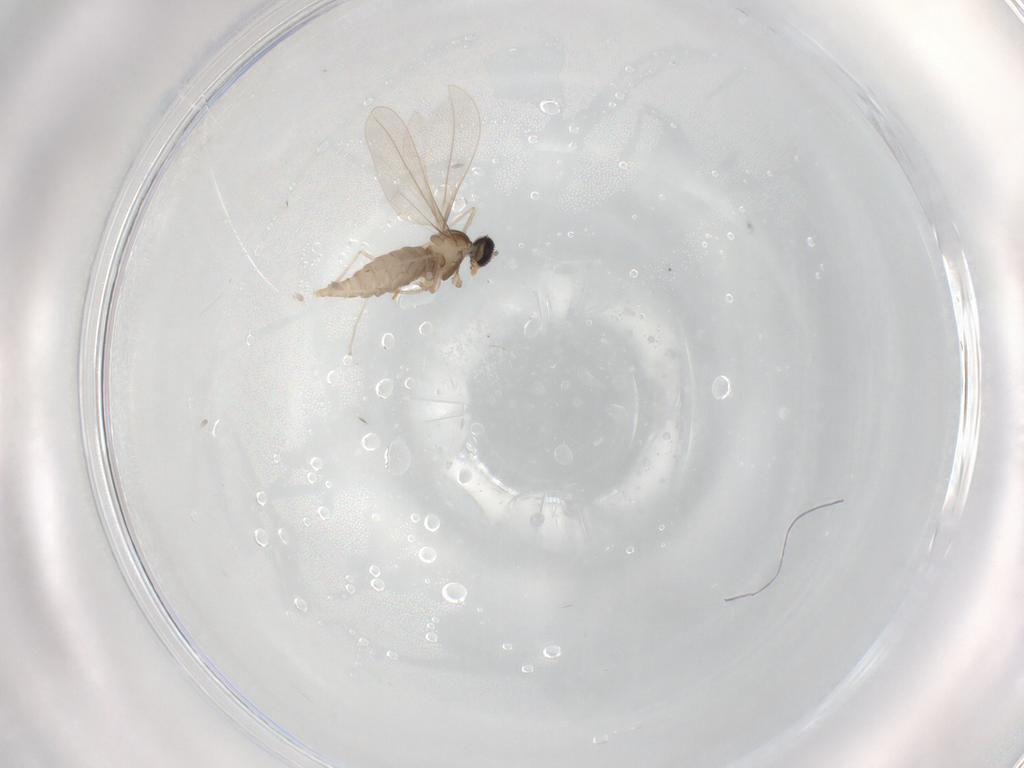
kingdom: Animalia
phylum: Arthropoda
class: Insecta
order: Diptera
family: Cecidomyiidae
